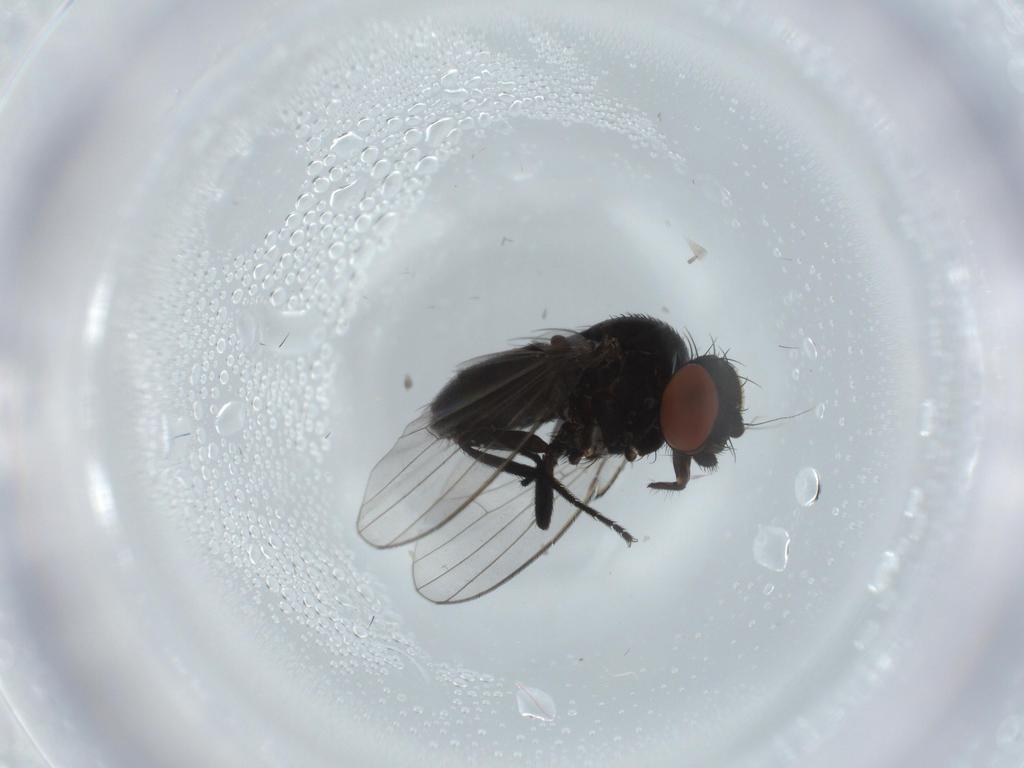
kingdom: Animalia
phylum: Arthropoda
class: Insecta
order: Diptera
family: Milichiidae
